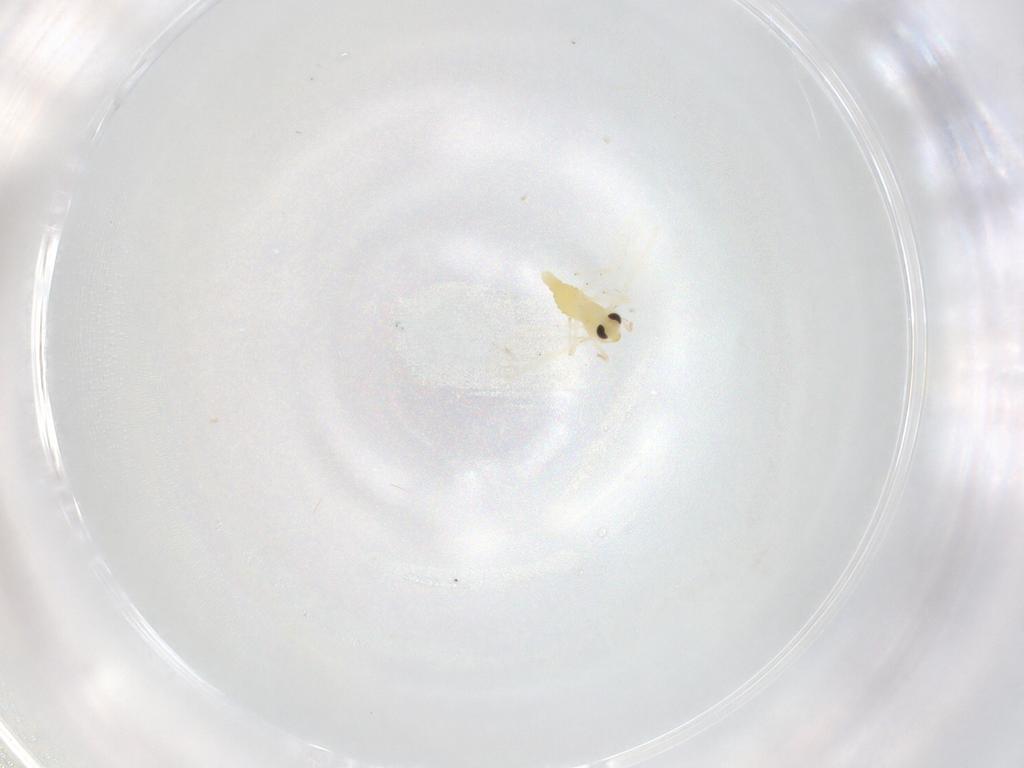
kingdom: Animalia
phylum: Arthropoda
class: Insecta
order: Diptera
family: Chironomidae
